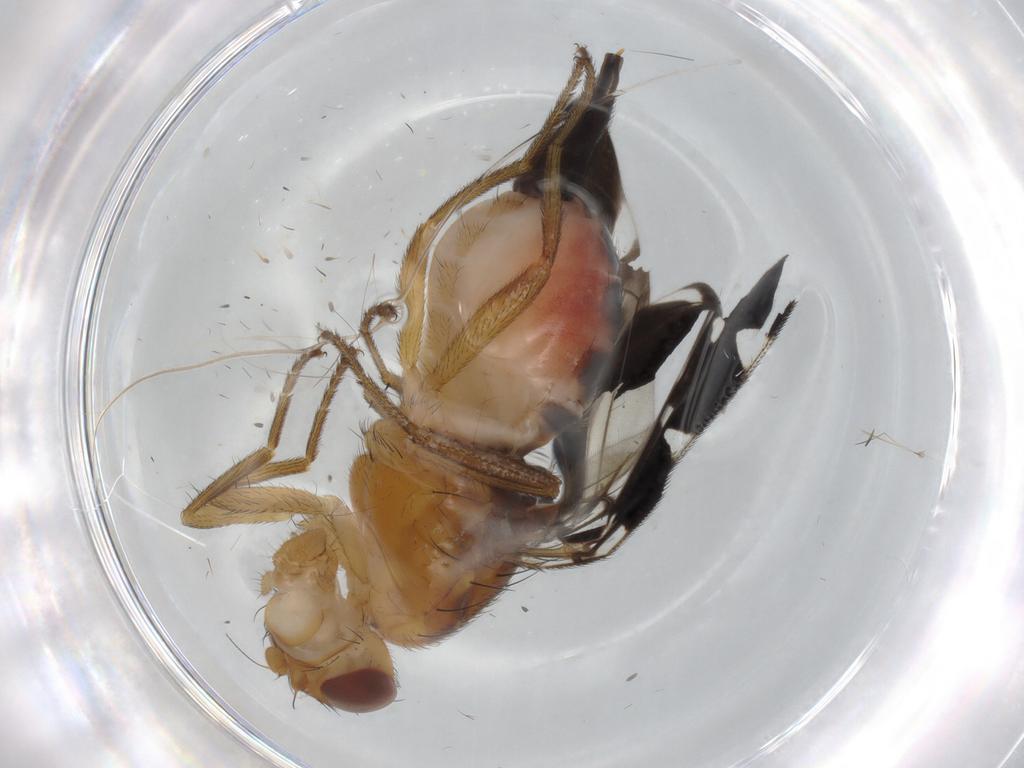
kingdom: Animalia
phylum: Arthropoda
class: Insecta
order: Diptera
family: Ulidiidae
